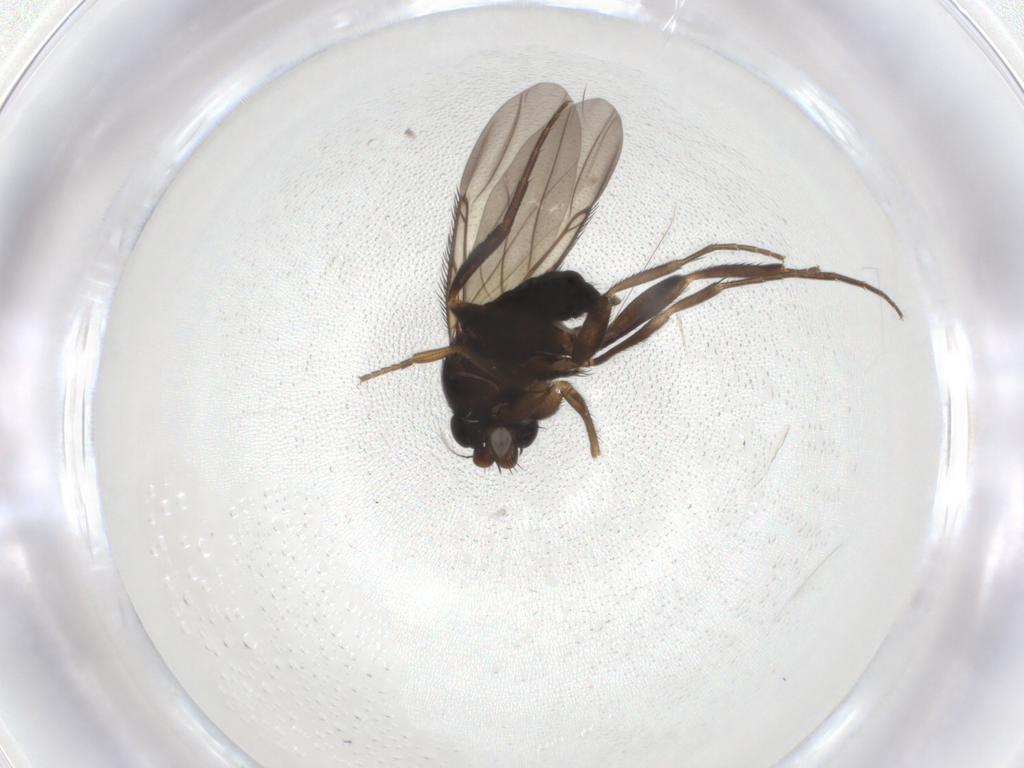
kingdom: Animalia
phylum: Arthropoda
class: Insecta
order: Diptera
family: Phoridae
